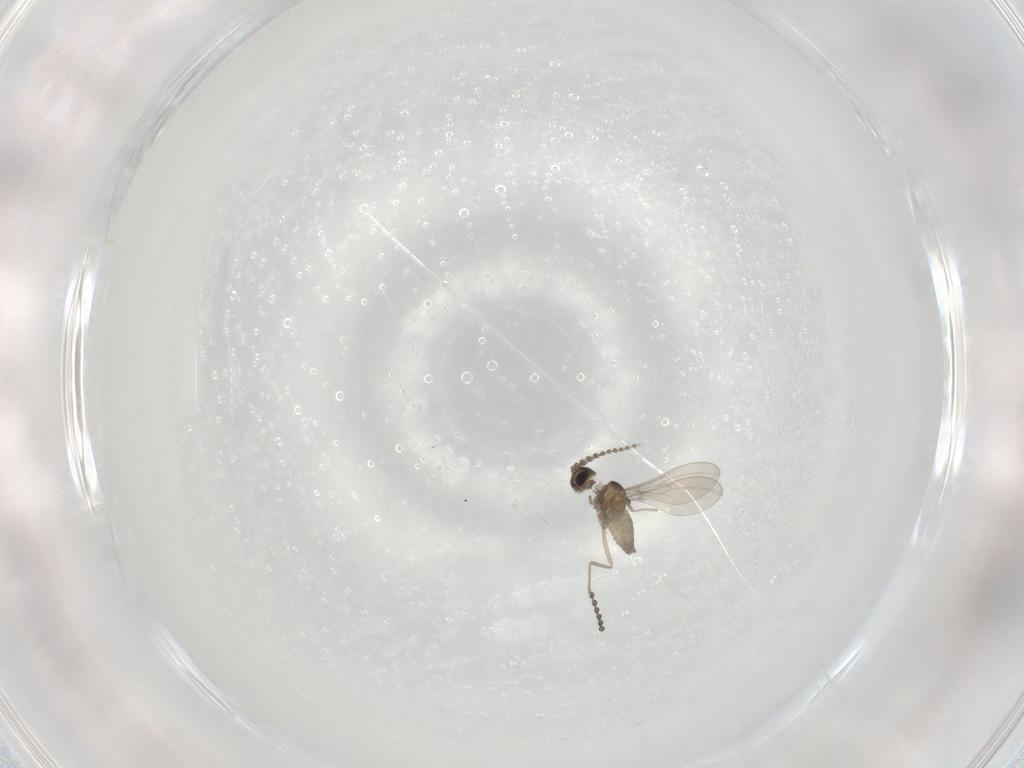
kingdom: Animalia
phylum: Arthropoda
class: Insecta
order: Diptera
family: Cecidomyiidae
